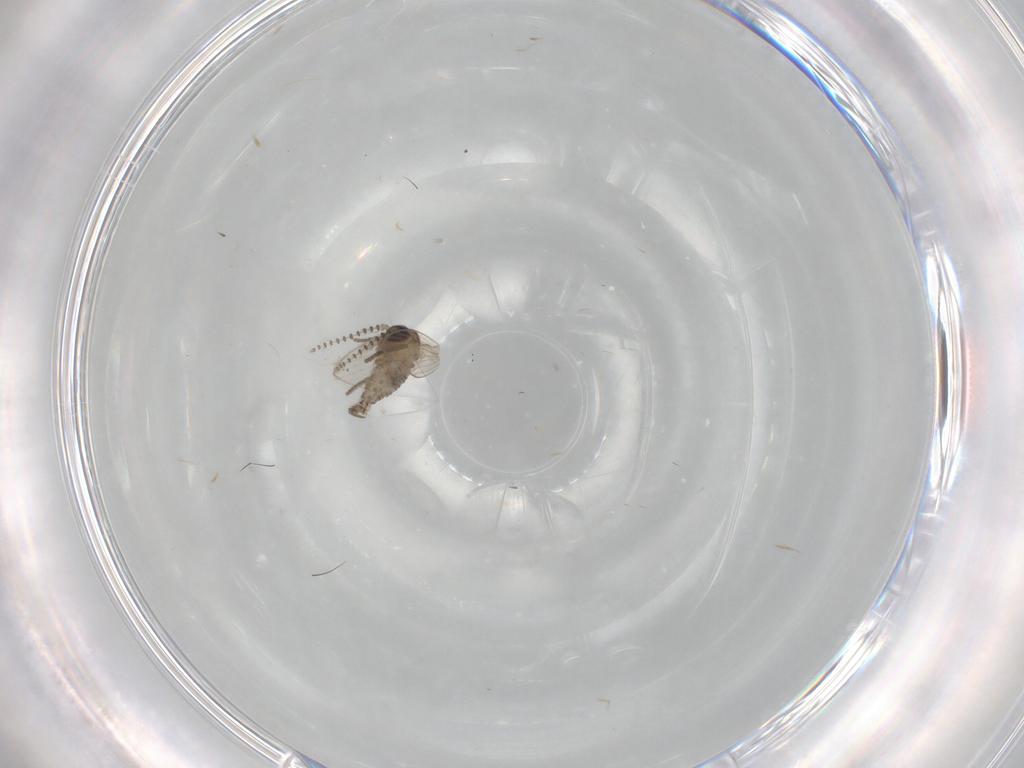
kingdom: Animalia
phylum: Arthropoda
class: Insecta
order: Diptera
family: Psychodidae
